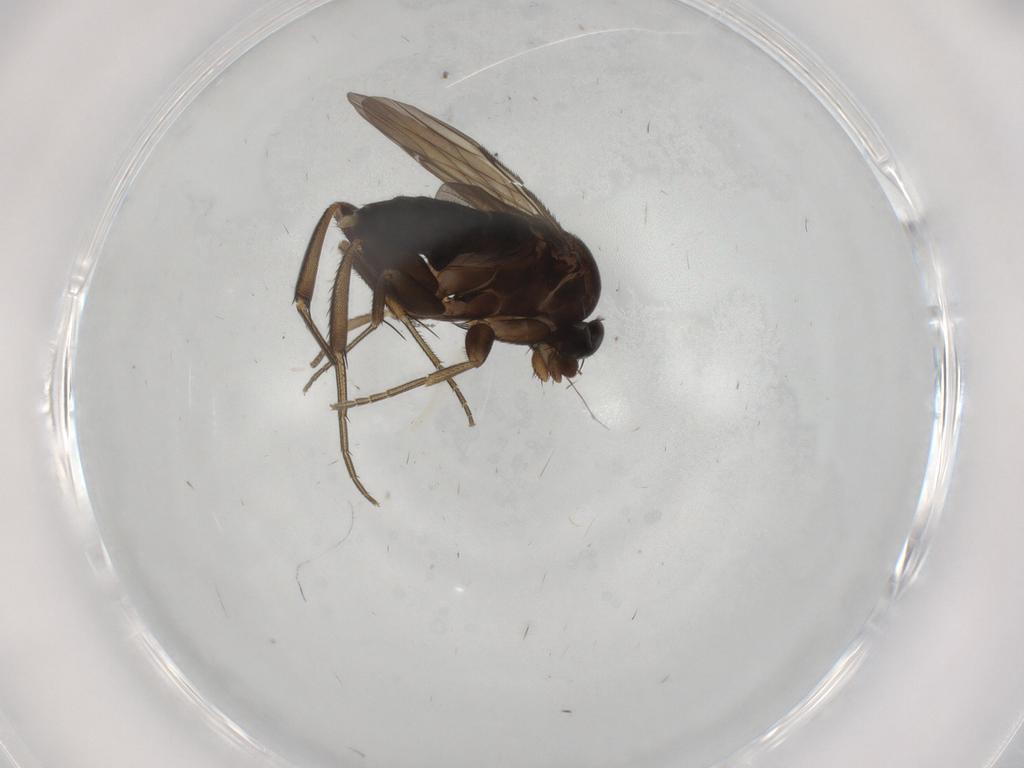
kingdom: Animalia
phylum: Arthropoda
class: Insecta
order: Diptera
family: Phoridae
